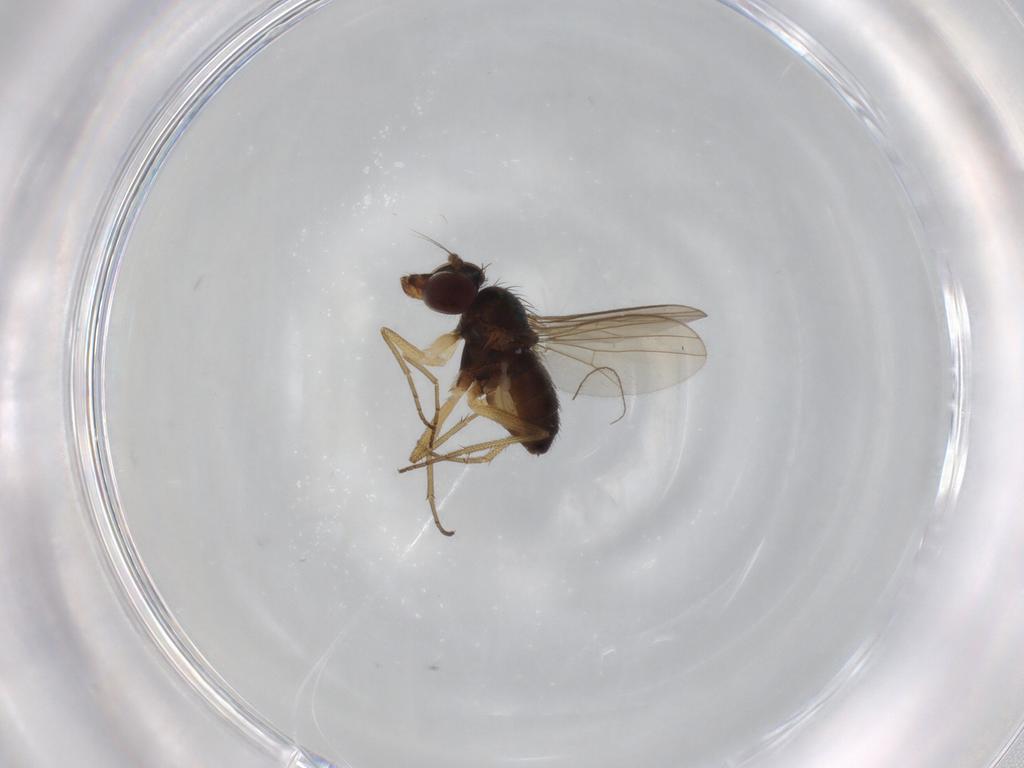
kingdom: Animalia
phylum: Arthropoda
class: Insecta
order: Diptera
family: Dolichopodidae
